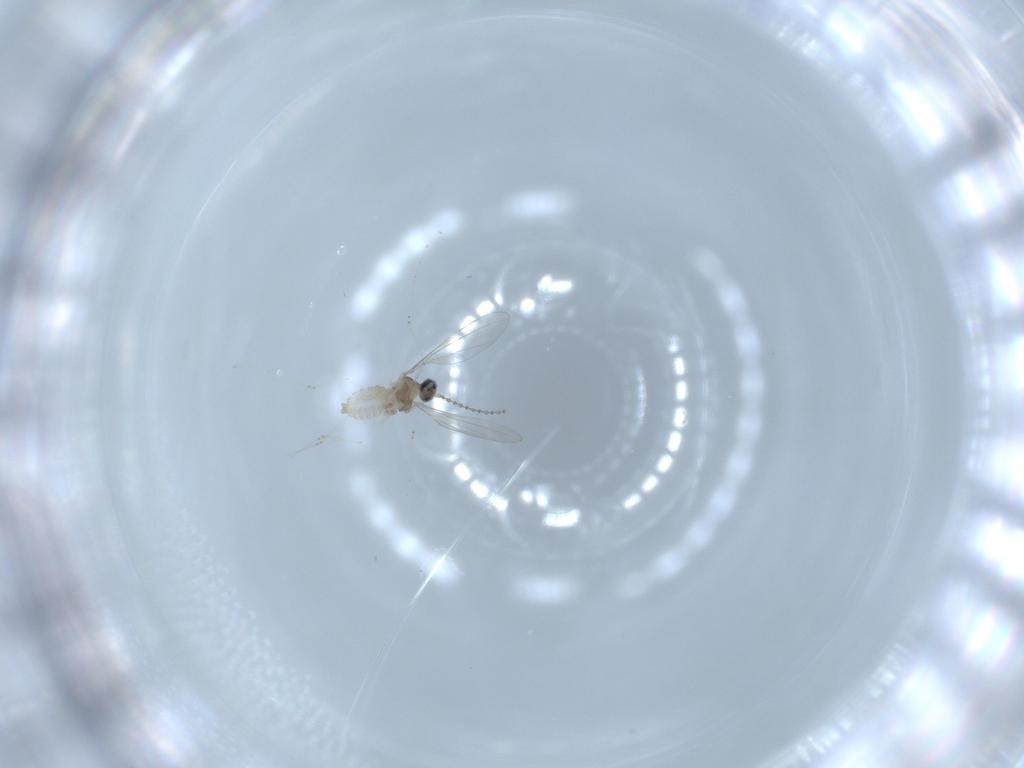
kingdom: Animalia
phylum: Arthropoda
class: Insecta
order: Diptera
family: Cecidomyiidae
